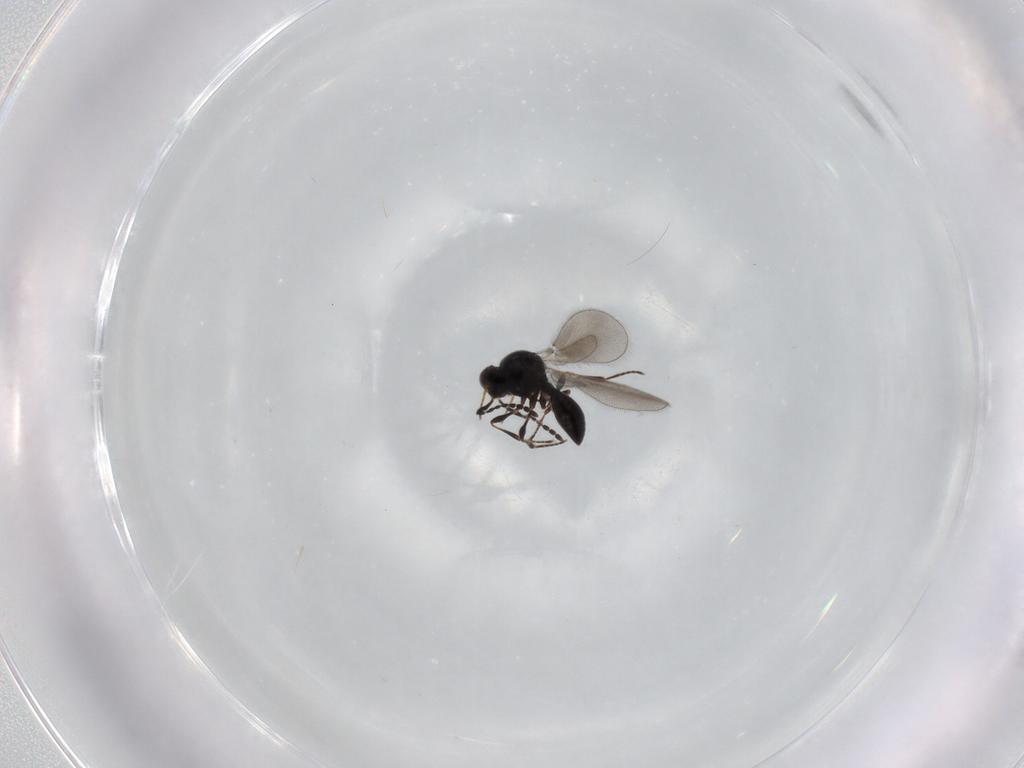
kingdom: Animalia
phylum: Arthropoda
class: Insecta
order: Hymenoptera
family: Platygastridae
